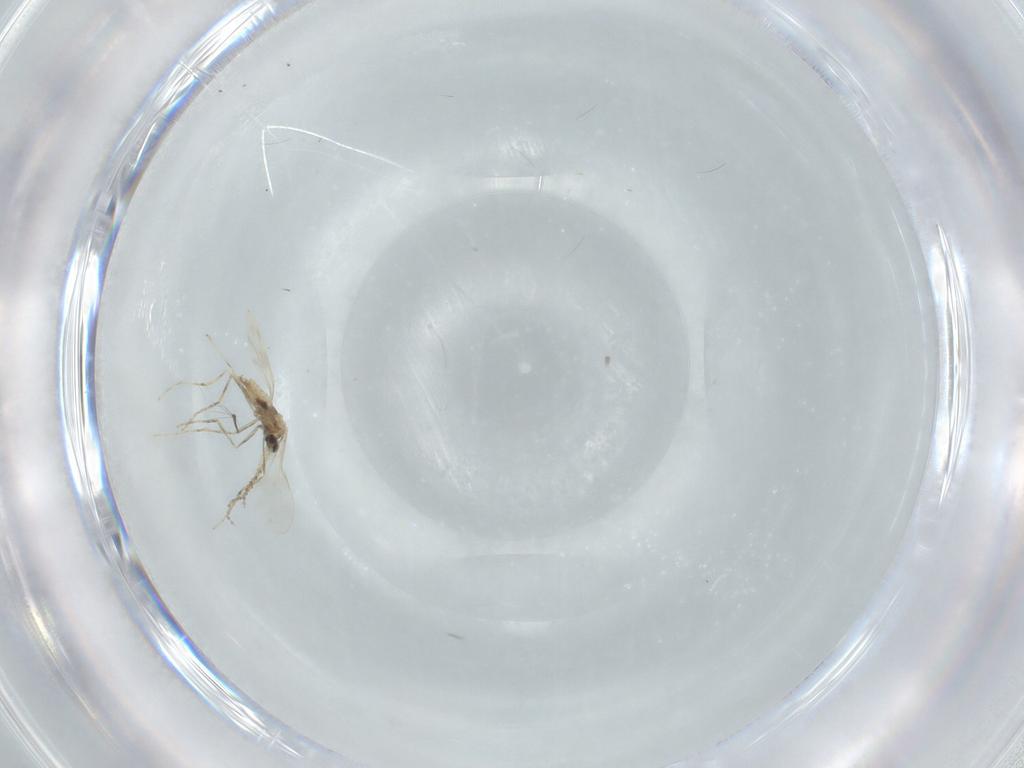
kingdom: Animalia
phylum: Arthropoda
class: Insecta
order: Diptera
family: Cecidomyiidae
